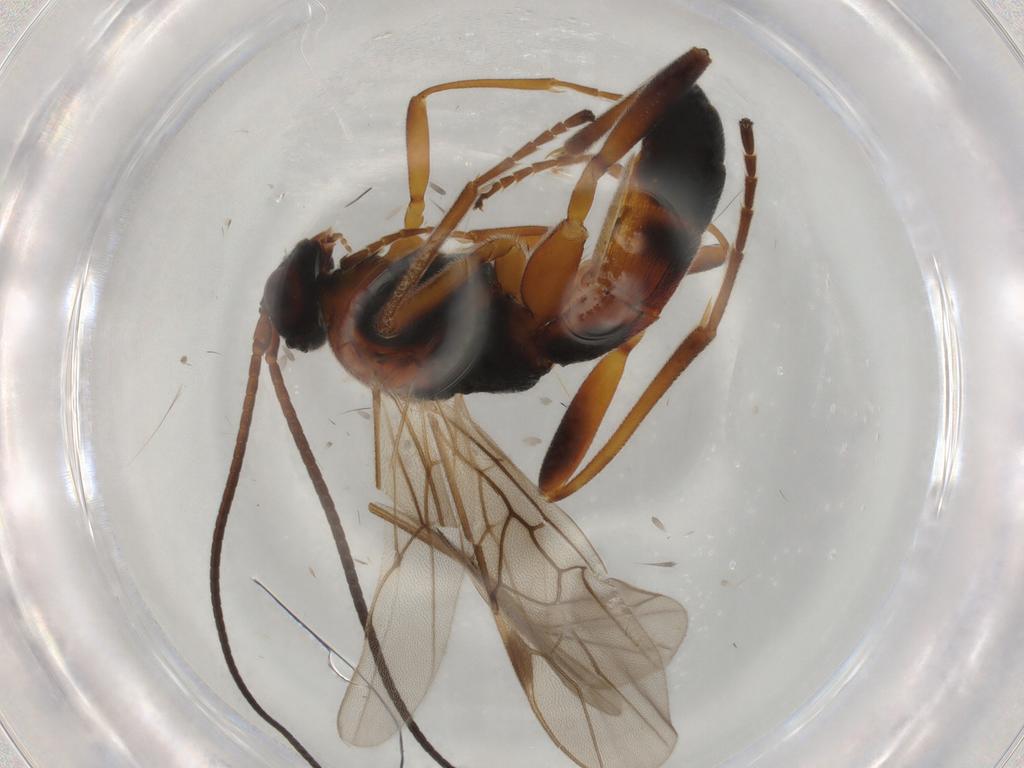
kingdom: Animalia
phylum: Arthropoda
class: Insecta
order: Hymenoptera
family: Braconidae
